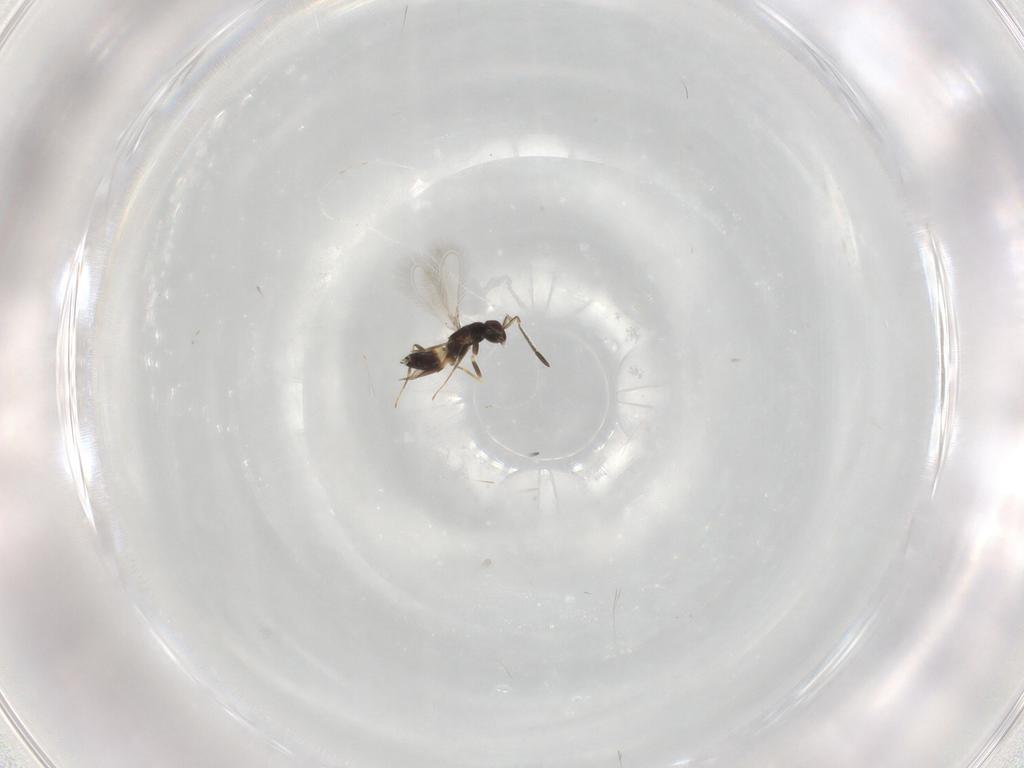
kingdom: Animalia
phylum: Arthropoda
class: Insecta
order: Hymenoptera
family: Mymaridae
